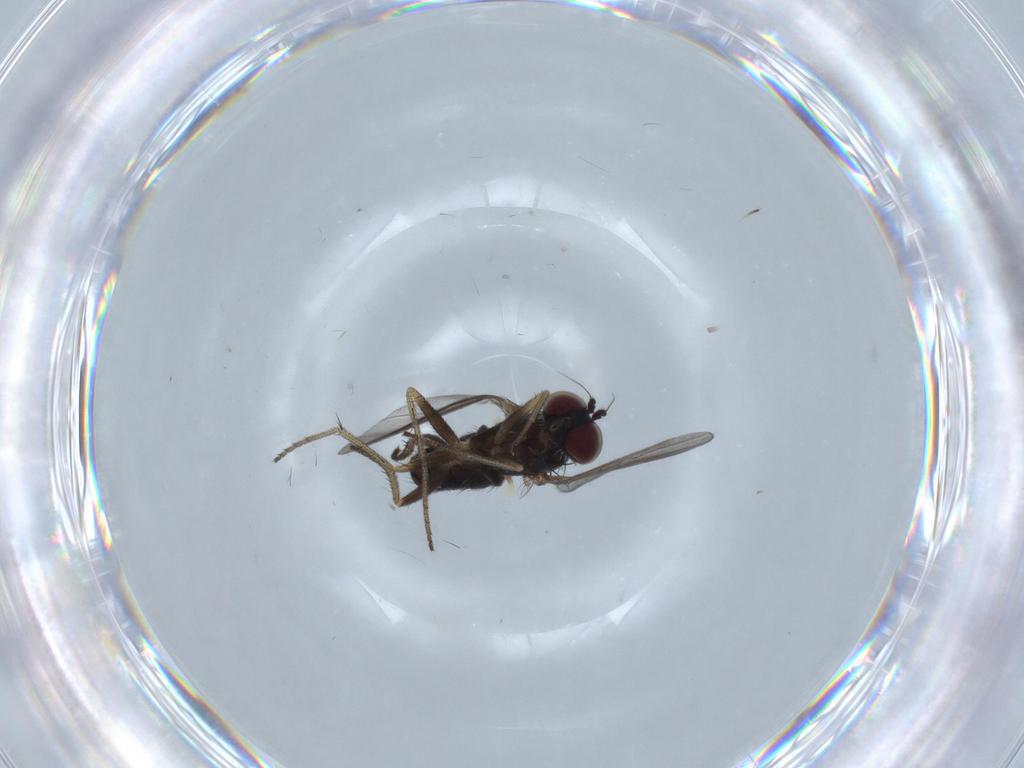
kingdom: Animalia
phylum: Arthropoda
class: Insecta
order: Diptera
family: Dolichopodidae
